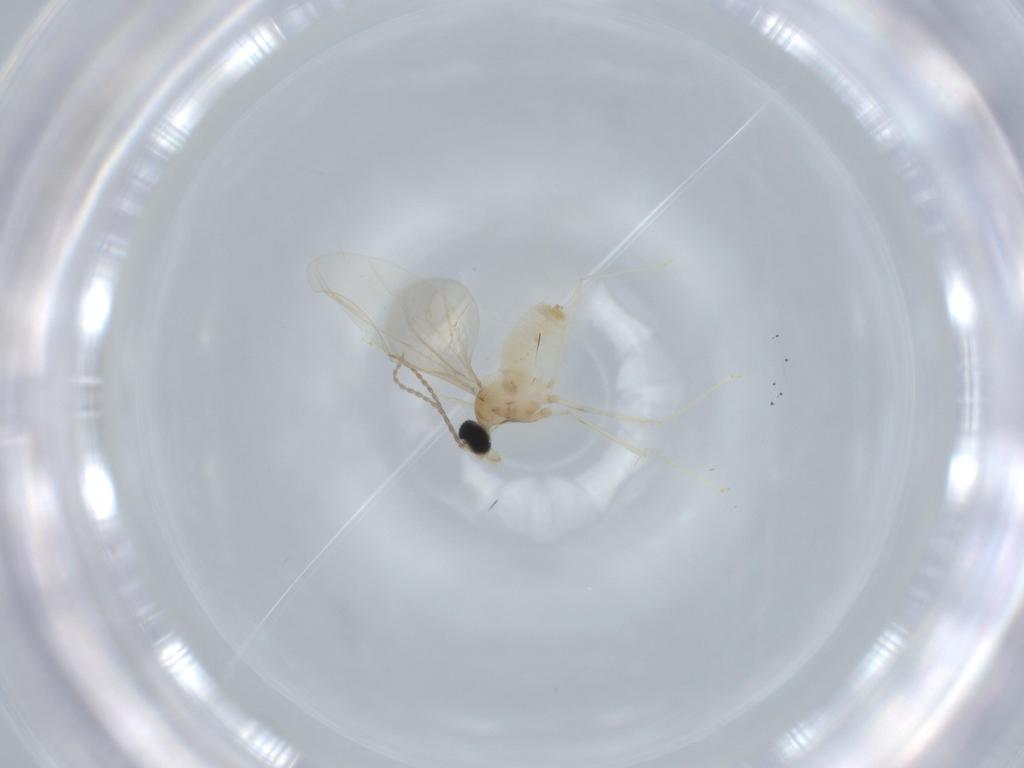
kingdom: Animalia
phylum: Arthropoda
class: Insecta
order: Diptera
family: Cecidomyiidae
